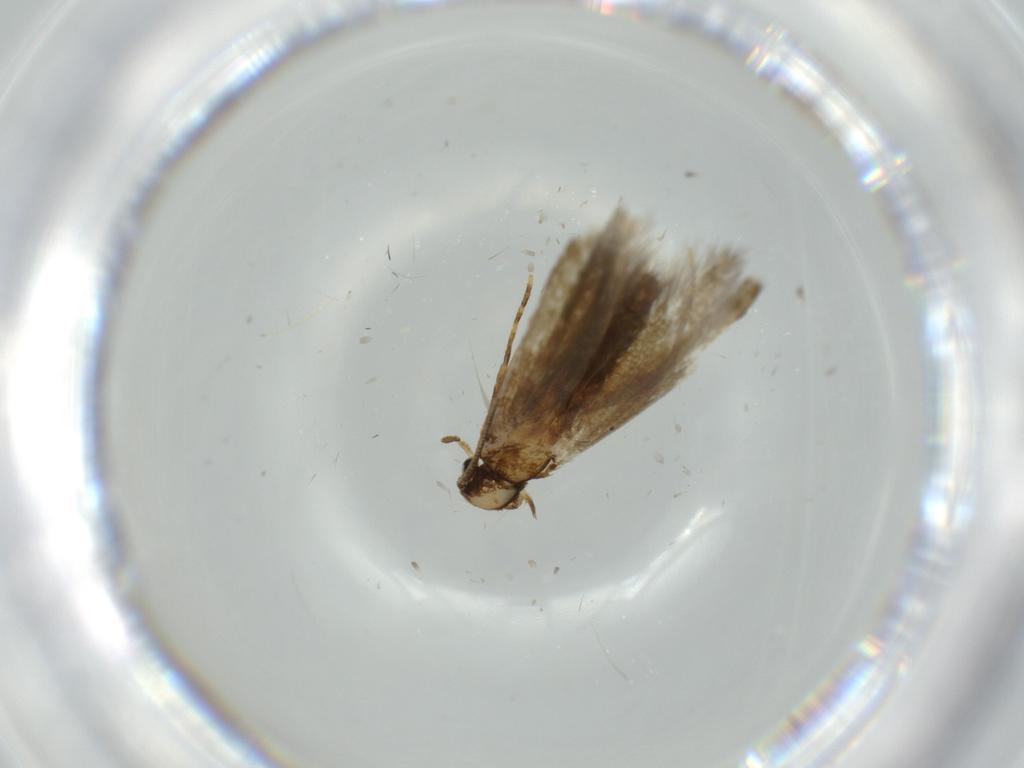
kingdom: Animalia
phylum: Arthropoda
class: Insecta
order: Lepidoptera
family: Tineidae
